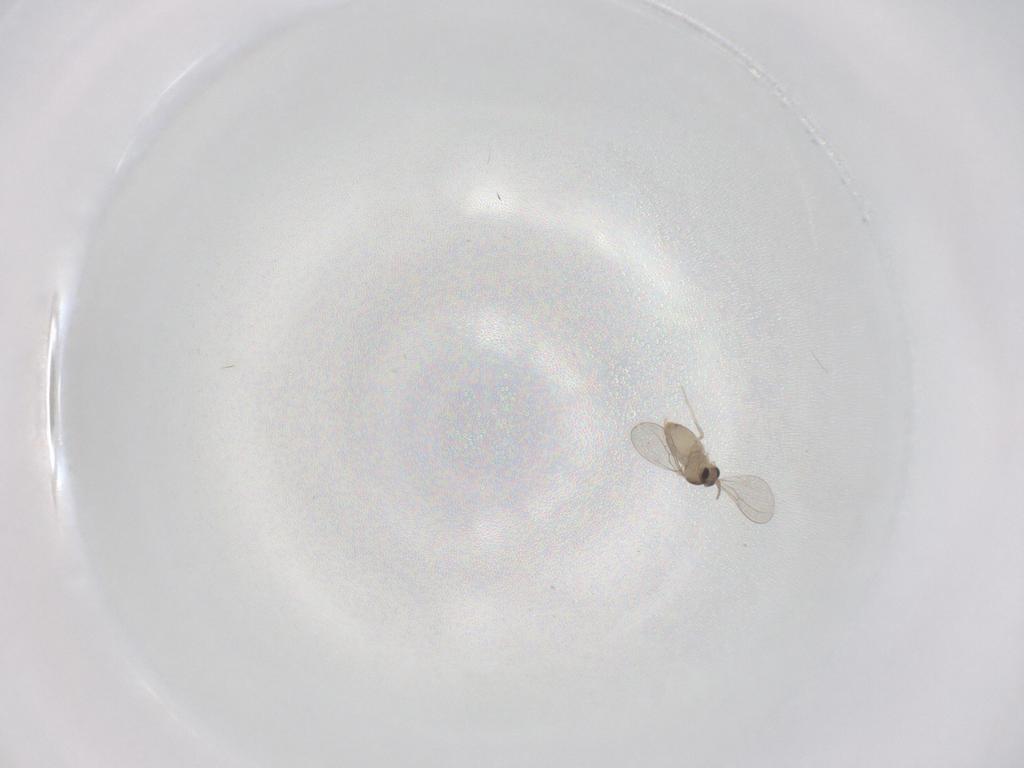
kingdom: Animalia
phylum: Arthropoda
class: Insecta
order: Diptera
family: Cecidomyiidae
